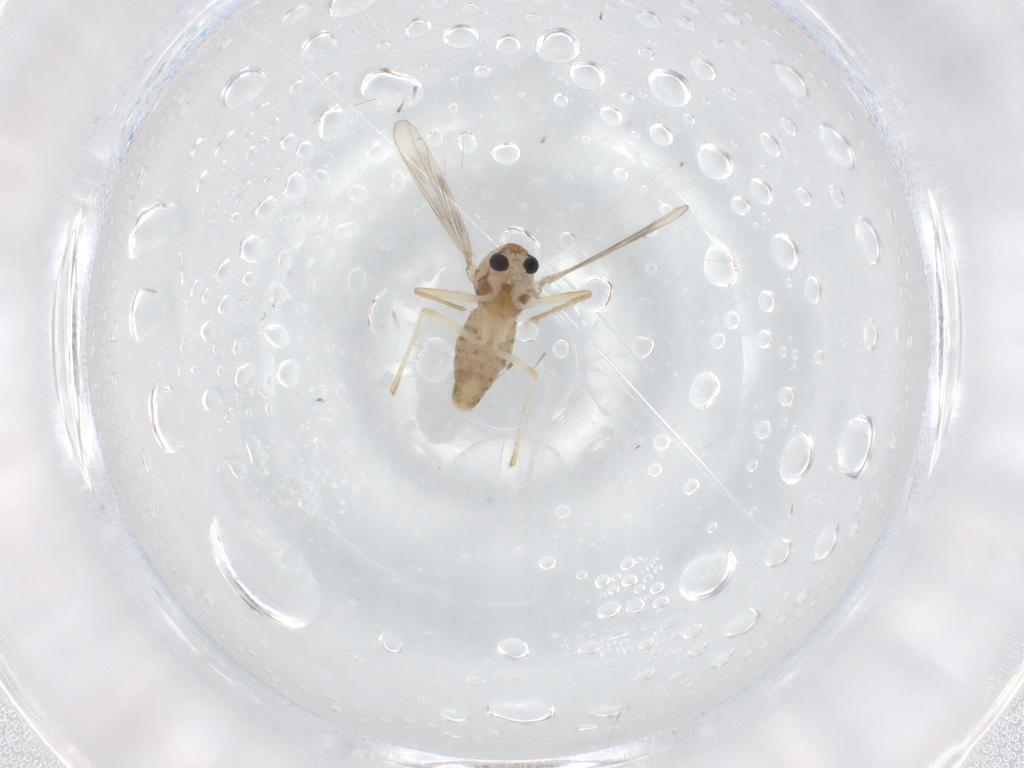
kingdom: Animalia
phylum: Arthropoda
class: Insecta
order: Diptera
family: Chironomidae
